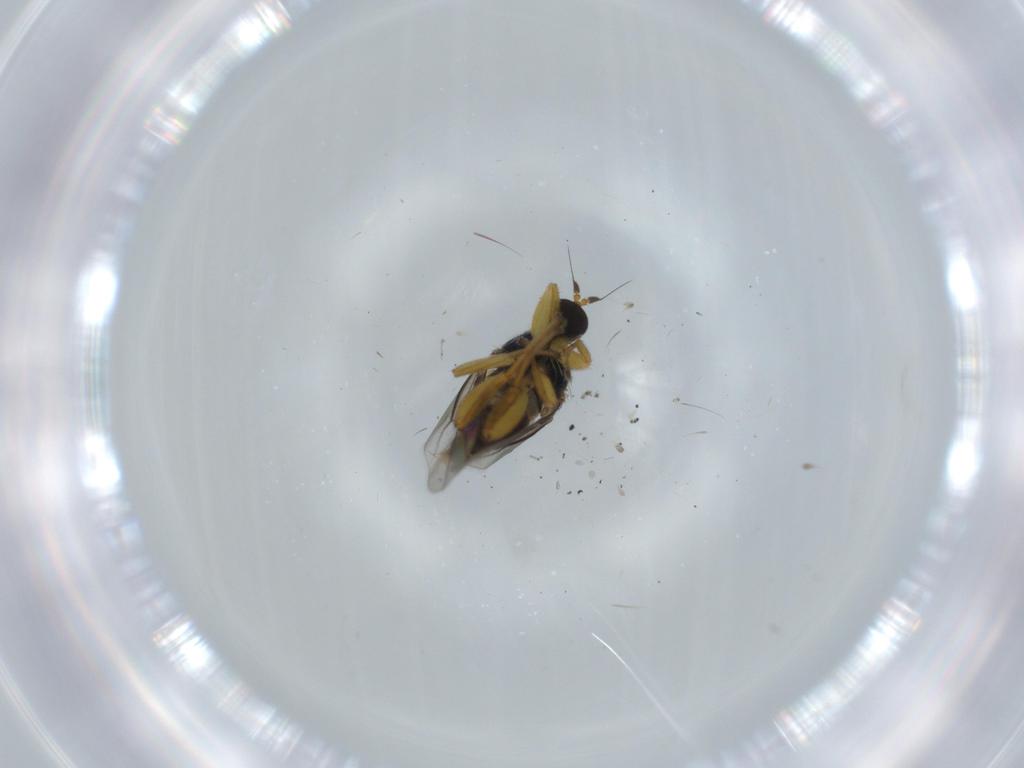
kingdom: Animalia
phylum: Arthropoda
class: Insecta
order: Diptera
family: Hybotidae
